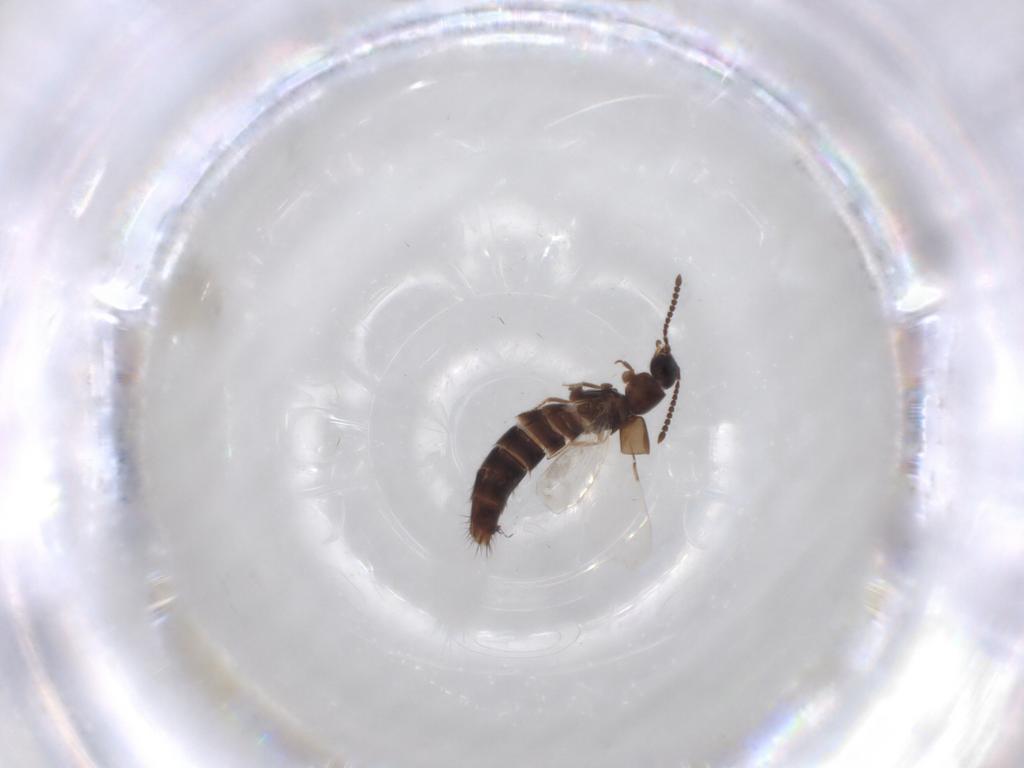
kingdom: Animalia
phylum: Arthropoda
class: Insecta
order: Coleoptera
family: Staphylinidae
